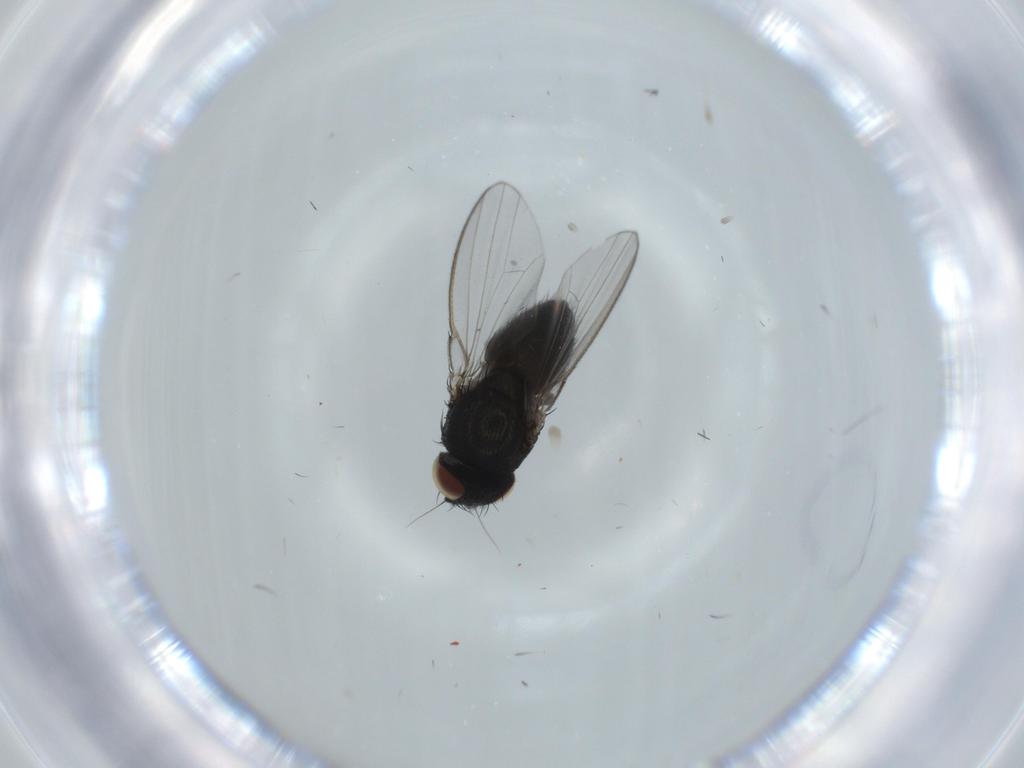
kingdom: Animalia
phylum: Arthropoda
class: Insecta
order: Diptera
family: Milichiidae
